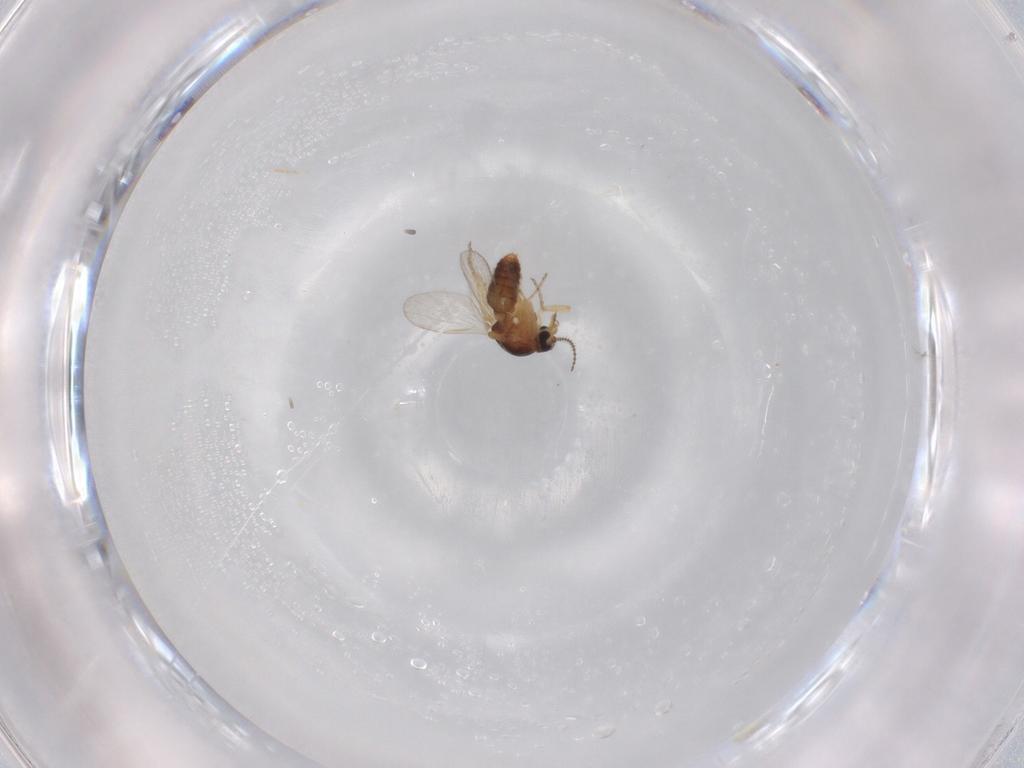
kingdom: Animalia
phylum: Arthropoda
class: Insecta
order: Diptera
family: Ceratopogonidae
